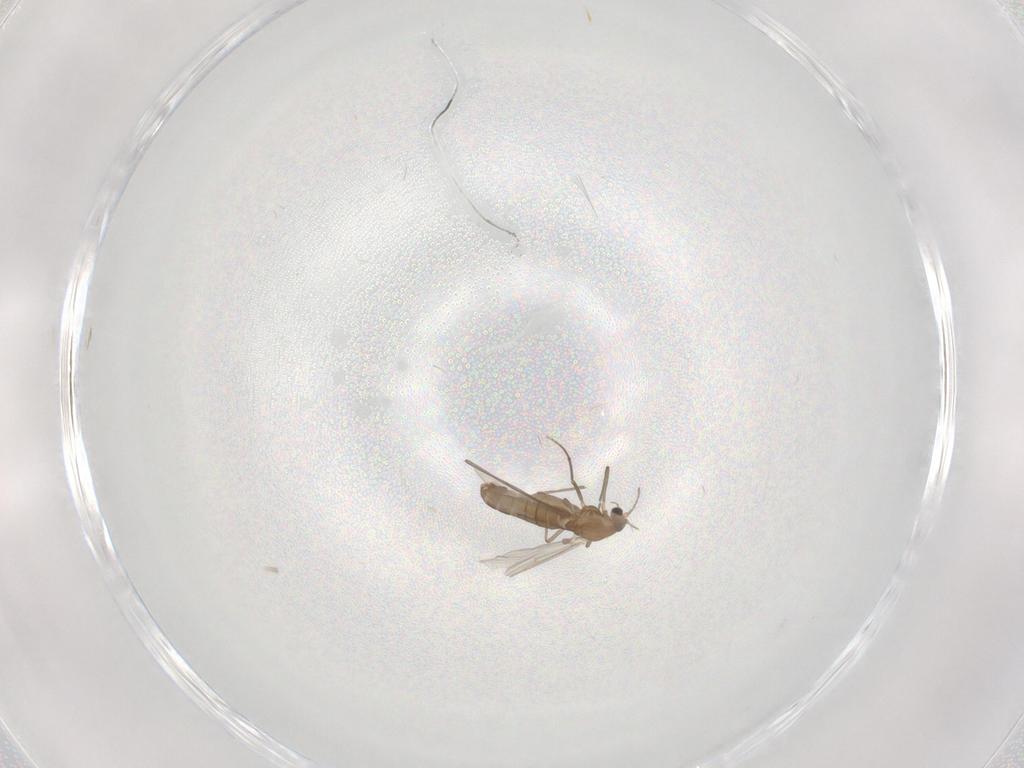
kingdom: Animalia
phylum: Arthropoda
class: Insecta
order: Diptera
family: Chironomidae
